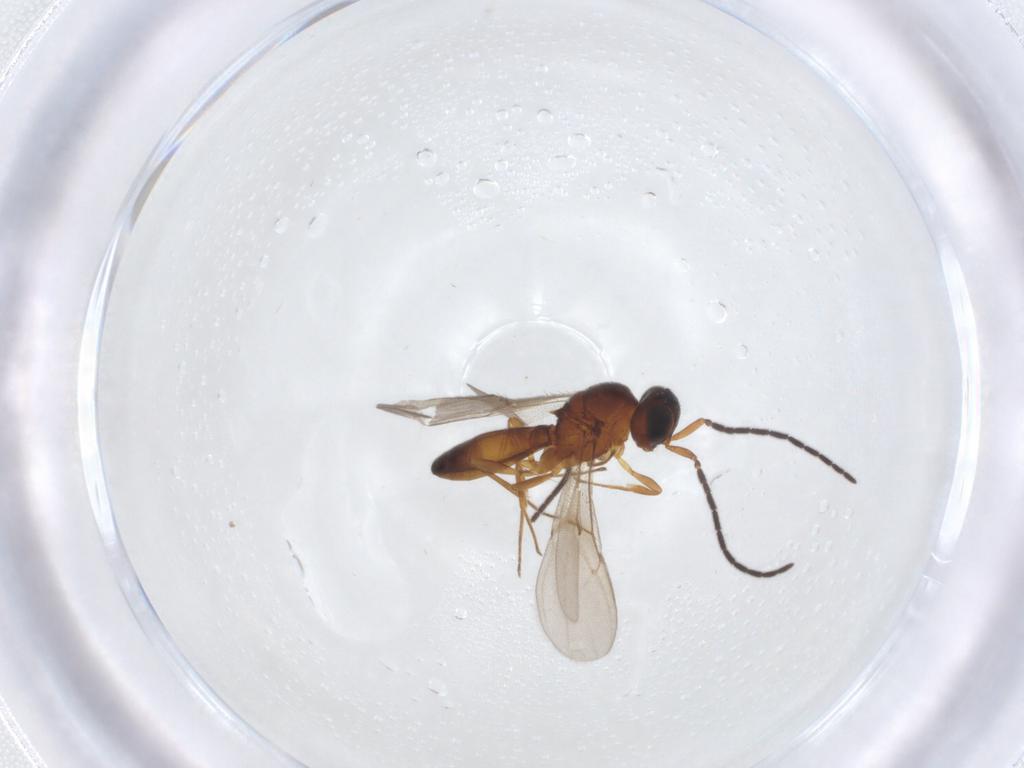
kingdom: Animalia
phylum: Arthropoda
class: Insecta
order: Hymenoptera
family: Scelionidae
